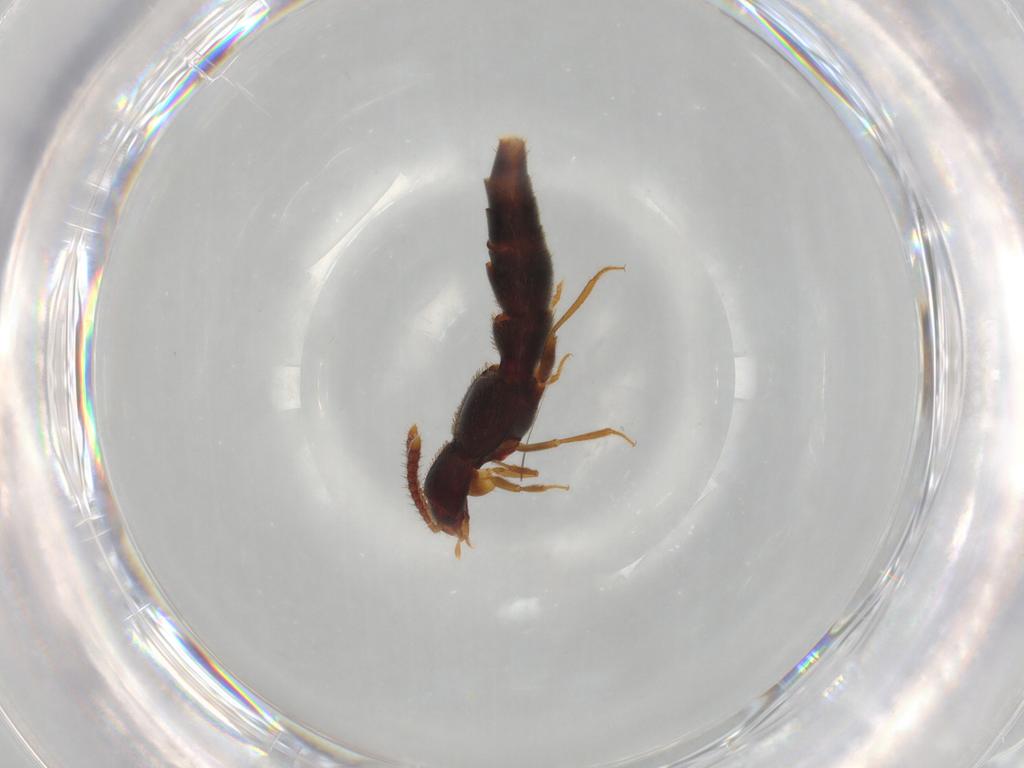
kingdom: Animalia
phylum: Arthropoda
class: Insecta
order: Coleoptera
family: Staphylinidae
